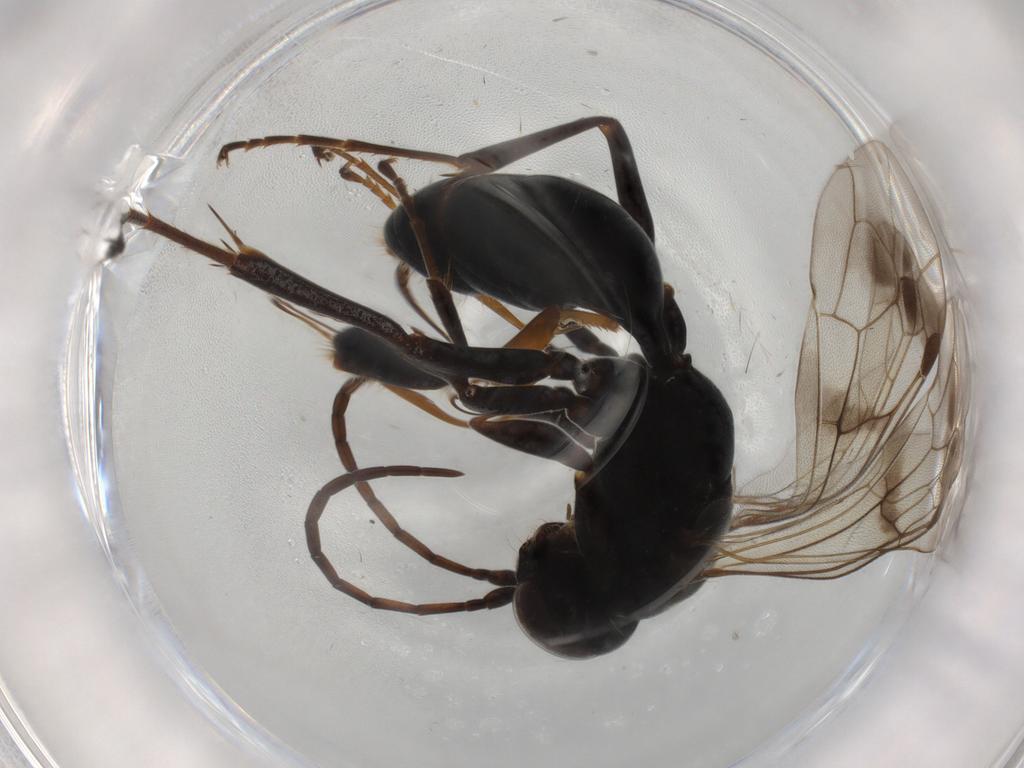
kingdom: Animalia
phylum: Arthropoda
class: Insecta
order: Hymenoptera
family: Pompilidae
